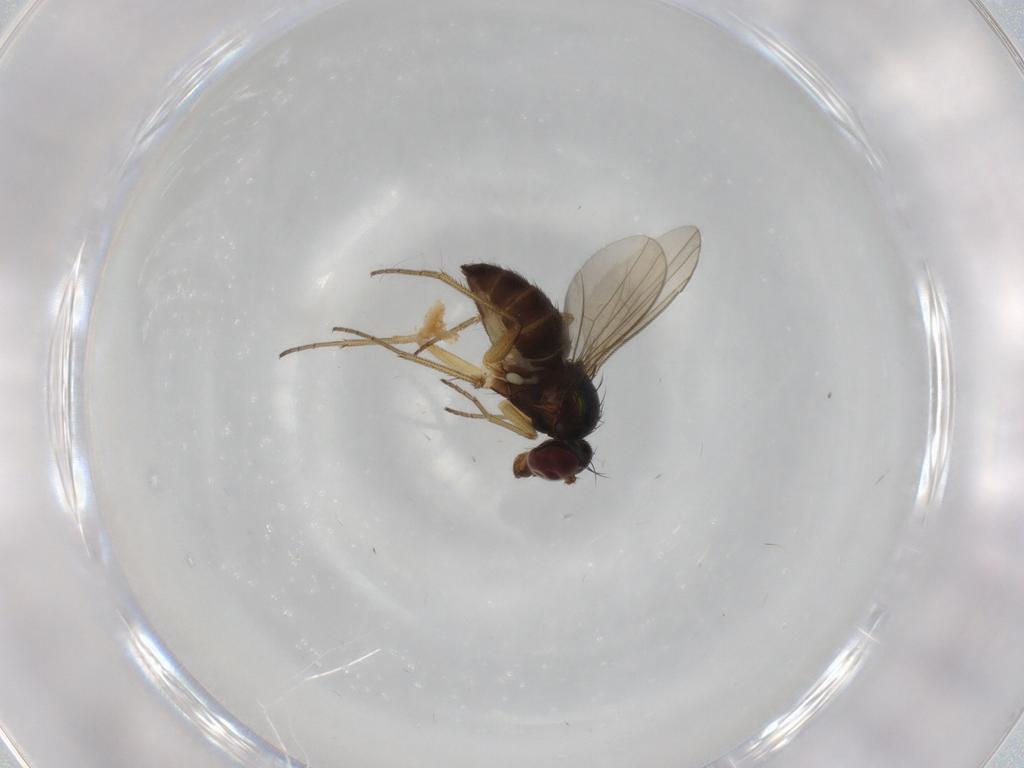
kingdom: Animalia
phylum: Arthropoda
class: Insecta
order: Diptera
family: Dolichopodidae
